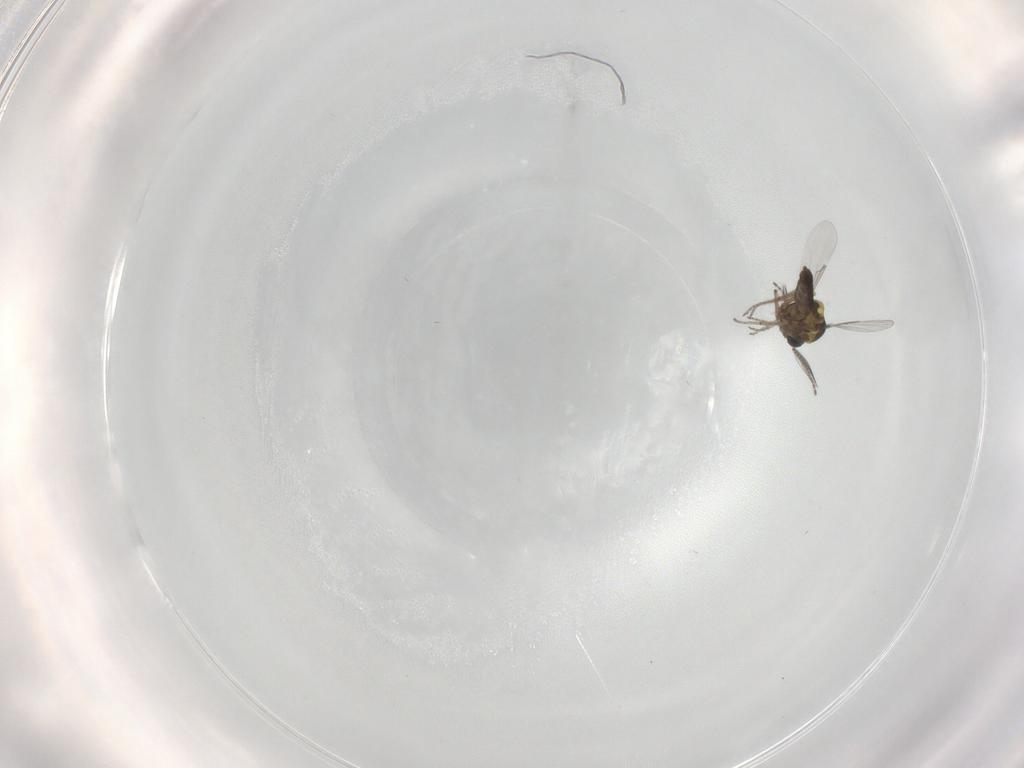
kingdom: Animalia
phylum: Arthropoda
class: Insecta
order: Diptera
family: Ceratopogonidae
